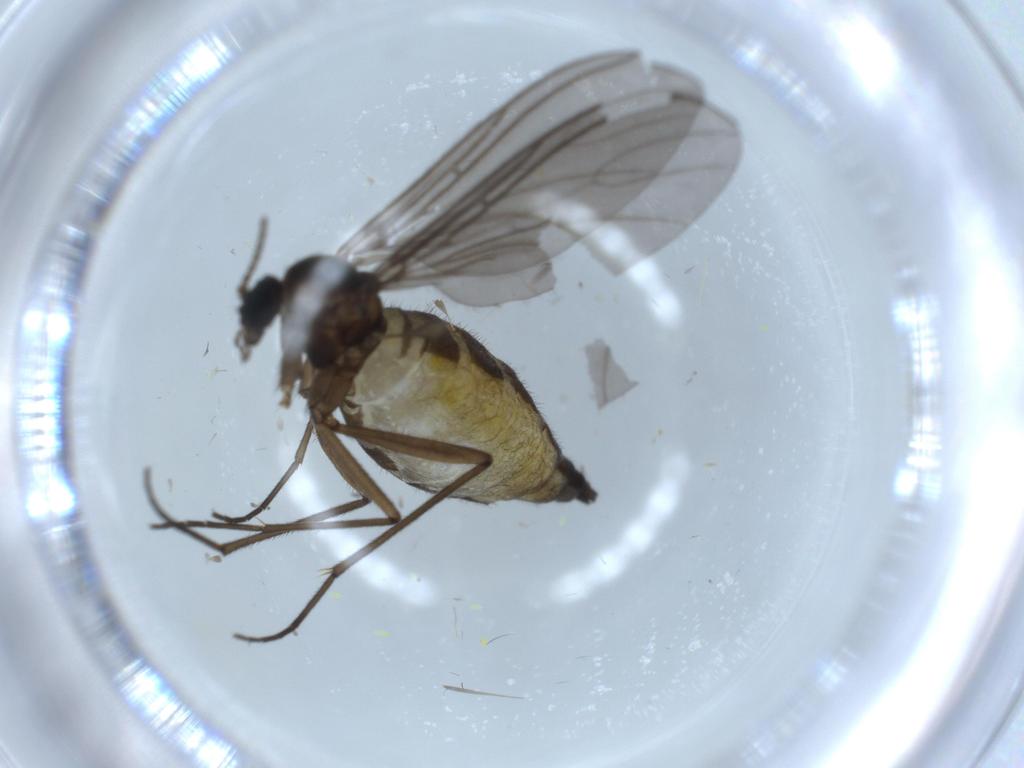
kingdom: Animalia
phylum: Arthropoda
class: Insecta
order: Diptera
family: Sciaridae
